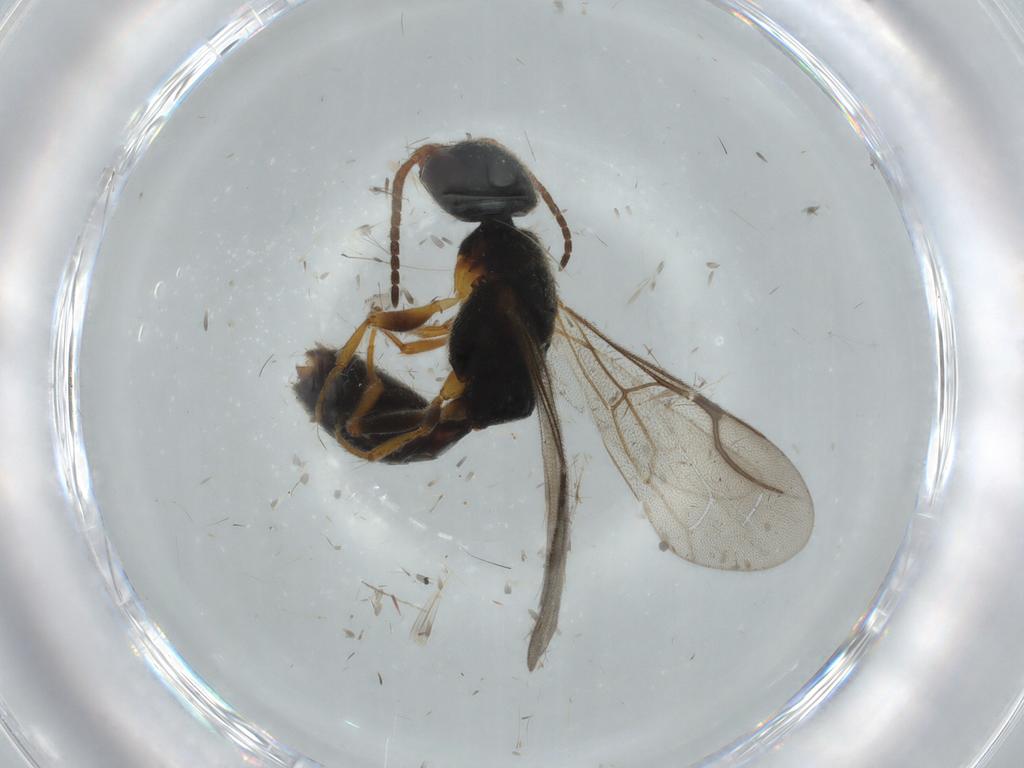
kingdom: Animalia
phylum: Arthropoda
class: Insecta
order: Hymenoptera
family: Bethylidae
